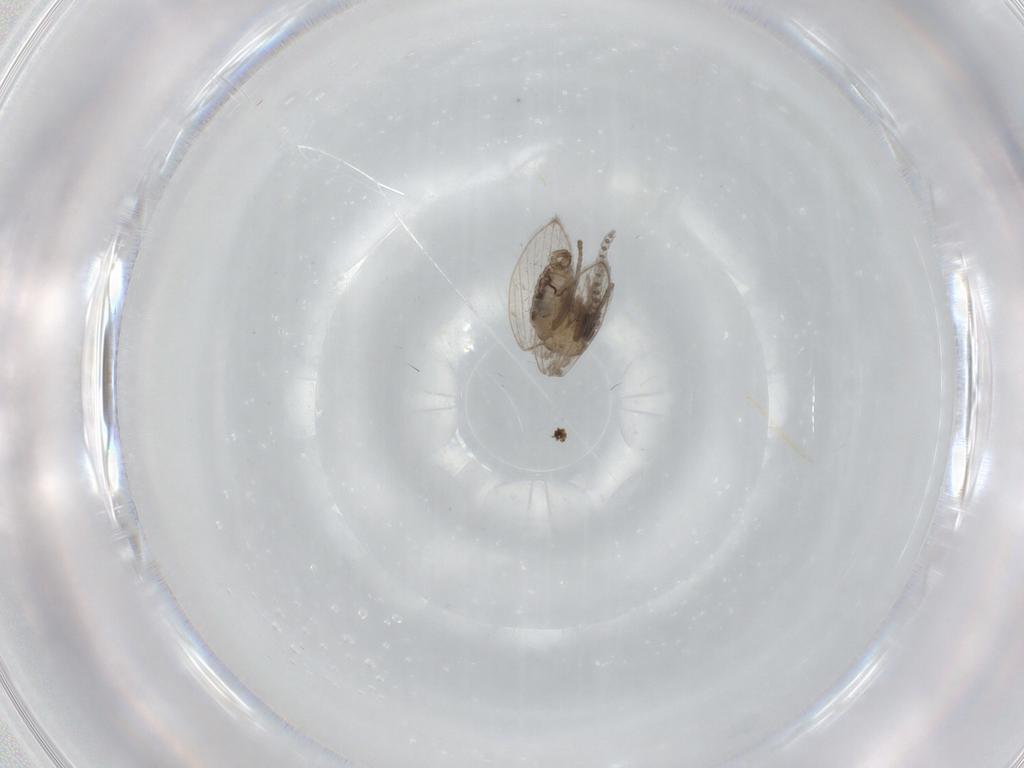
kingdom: Animalia
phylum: Arthropoda
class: Insecta
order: Diptera
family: Psychodidae
